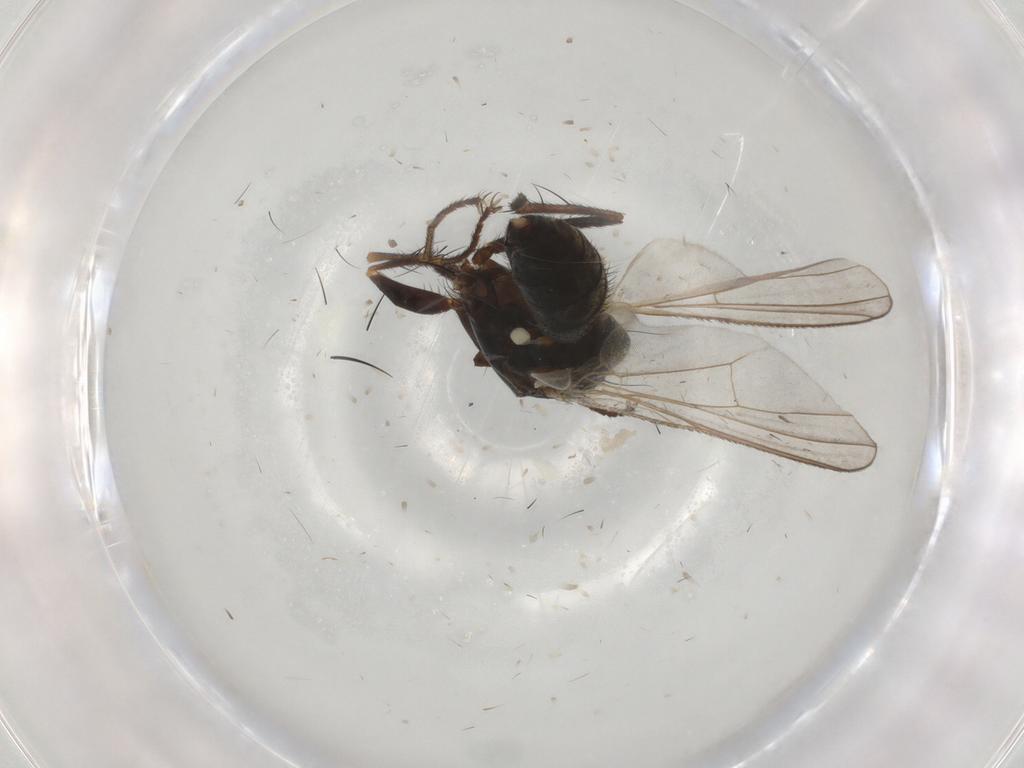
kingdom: Animalia
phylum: Arthropoda
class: Insecta
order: Diptera
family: Muscidae
